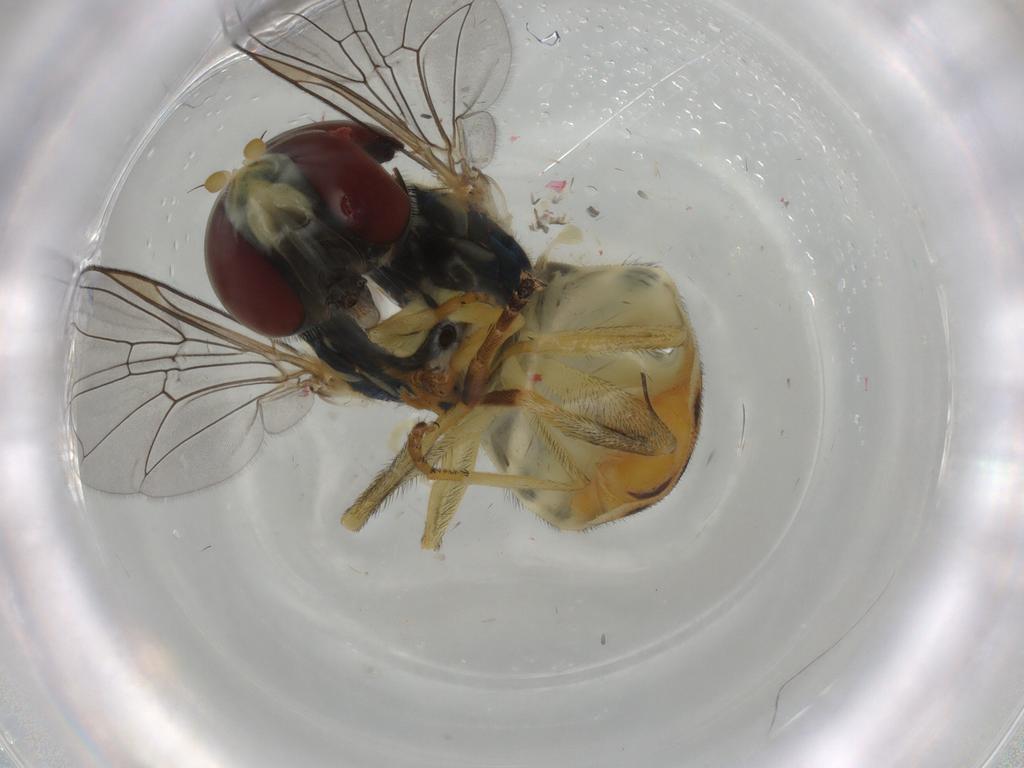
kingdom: Animalia
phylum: Arthropoda
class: Insecta
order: Diptera
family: Syrphidae
